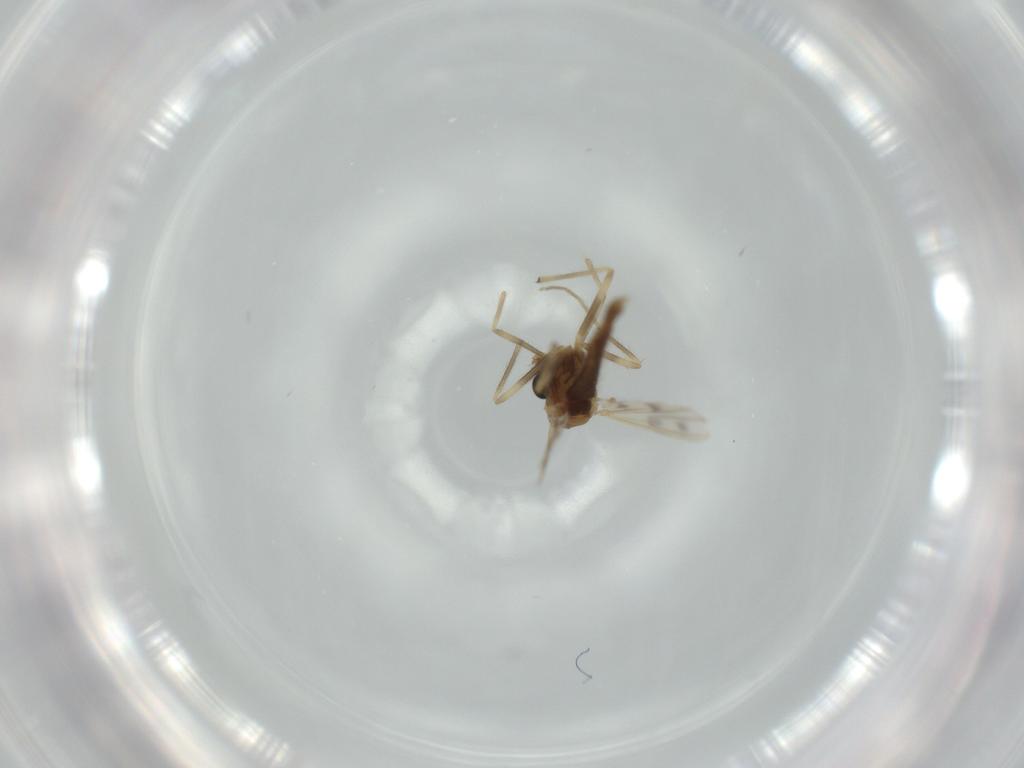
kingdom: Animalia
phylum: Arthropoda
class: Insecta
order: Diptera
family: Chironomidae
